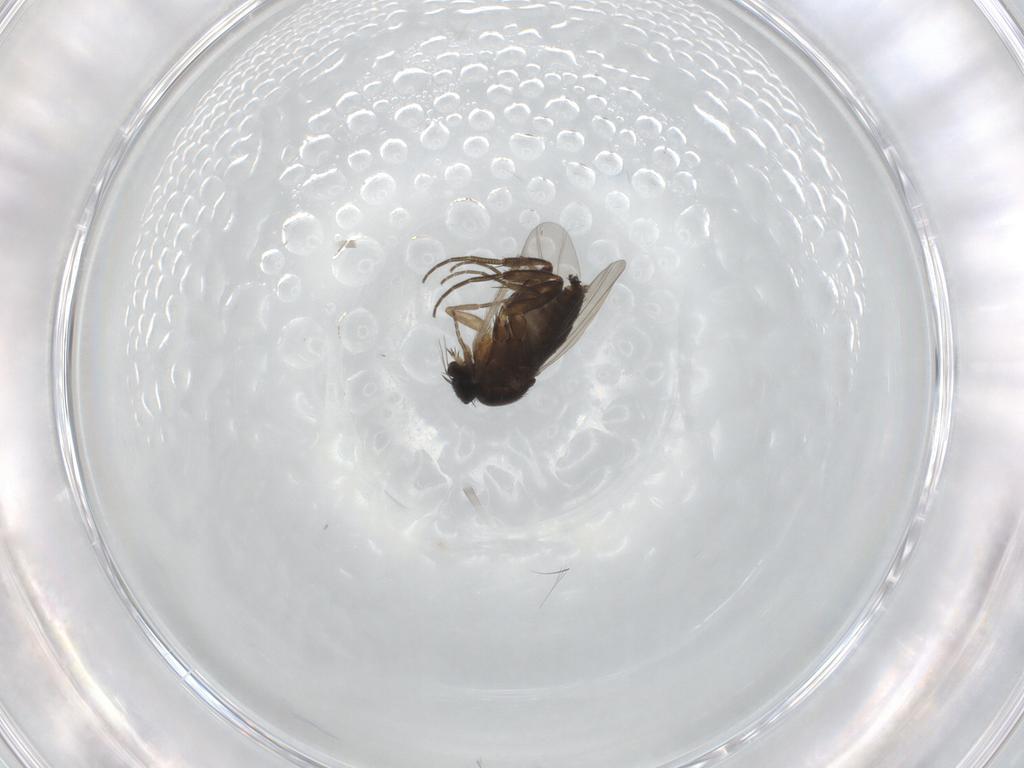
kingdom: Animalia
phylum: Arthropoda
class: Insecta
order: Diptera
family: Phoridae
